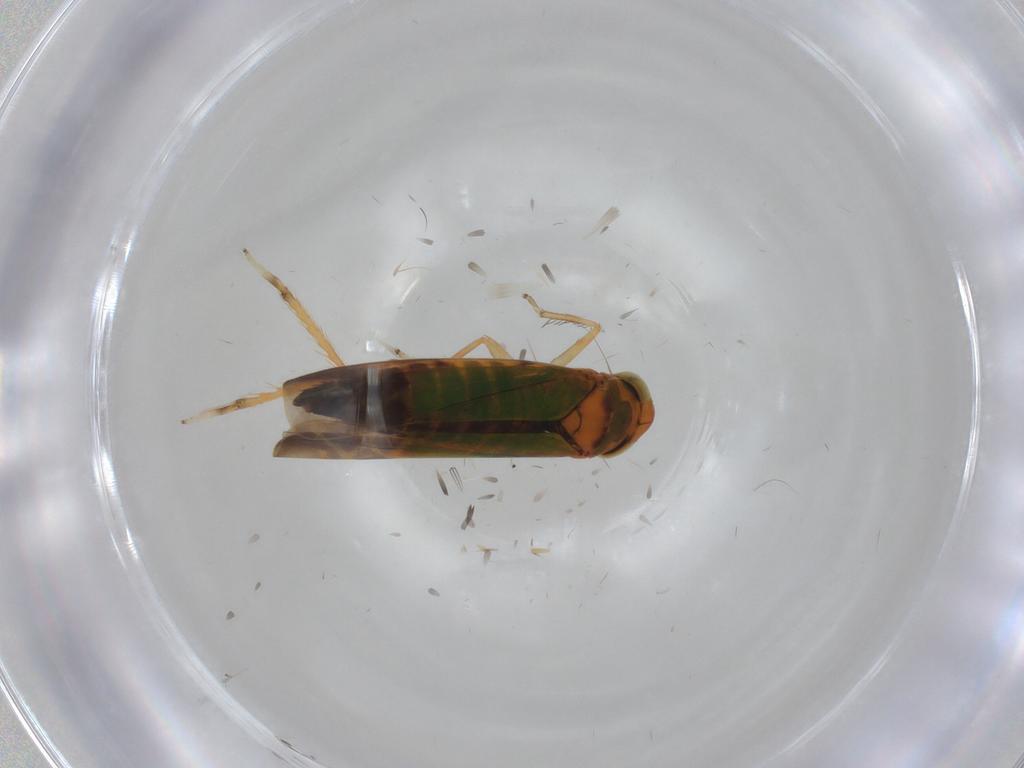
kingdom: Animalia
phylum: Arthropoda
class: Insecta
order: Hemiptera
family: Cicadellidae
